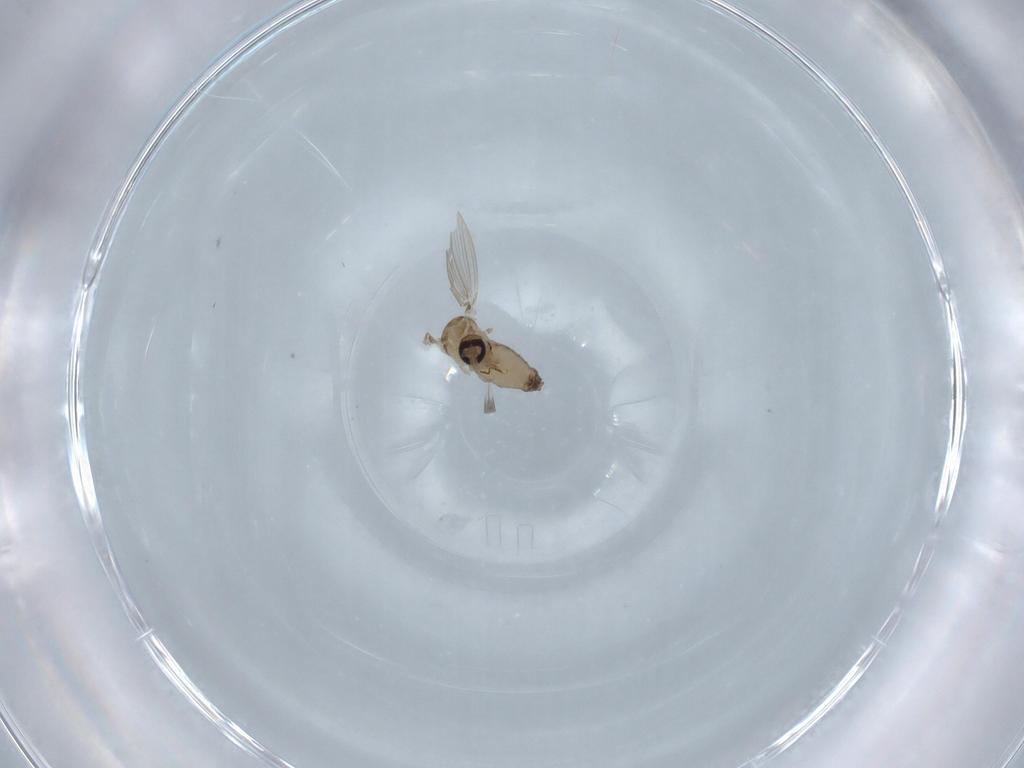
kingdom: Animalia
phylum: Arthropoda
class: Insecta
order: Diptera
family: Psychodidae
